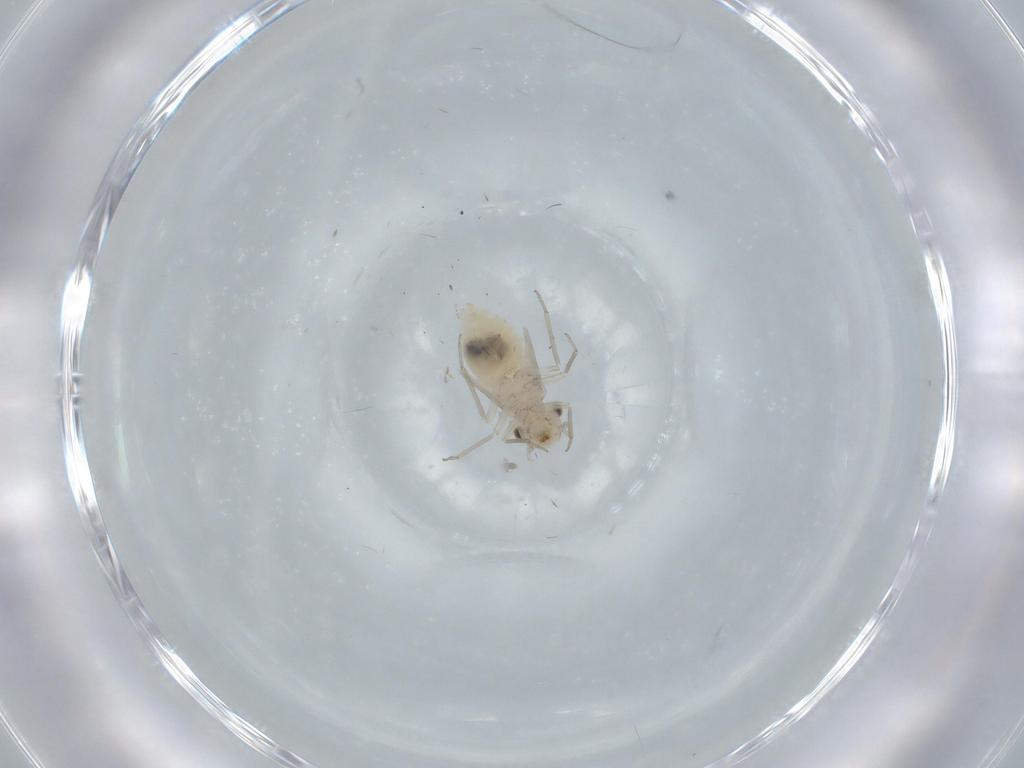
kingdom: Animalia
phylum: Arthropoda
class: Insecta
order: Psocodea
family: Lachesillidae
